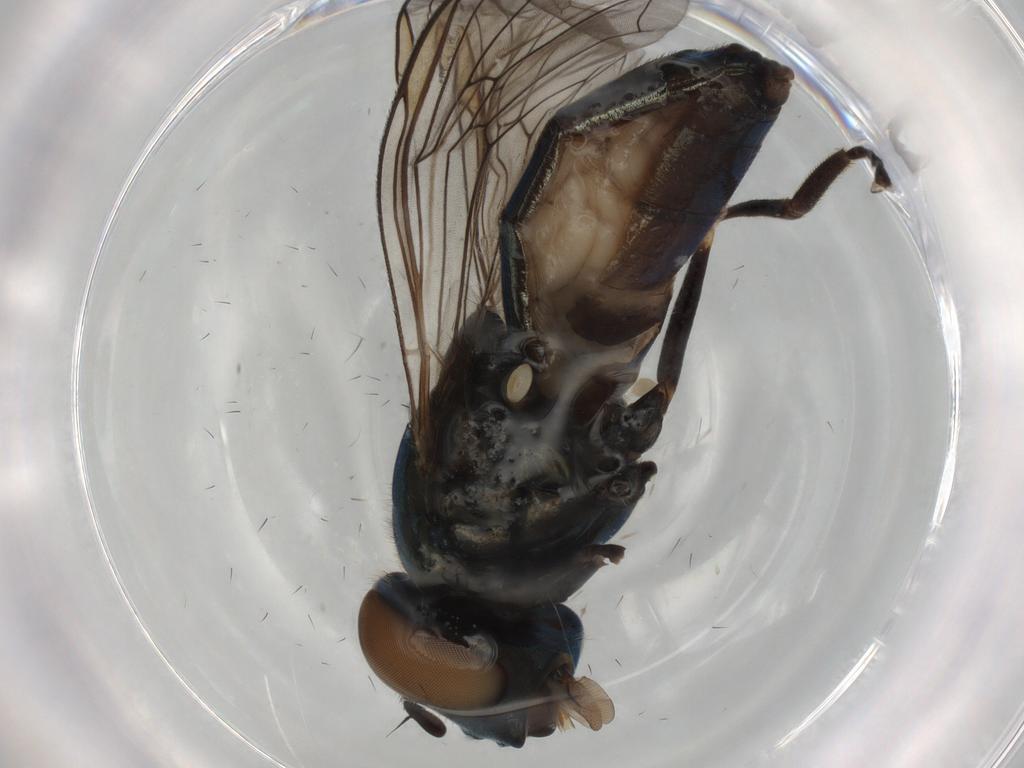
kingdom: Animalia
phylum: Arthropoda
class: Insecta
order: Diptera
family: Syrphidae
